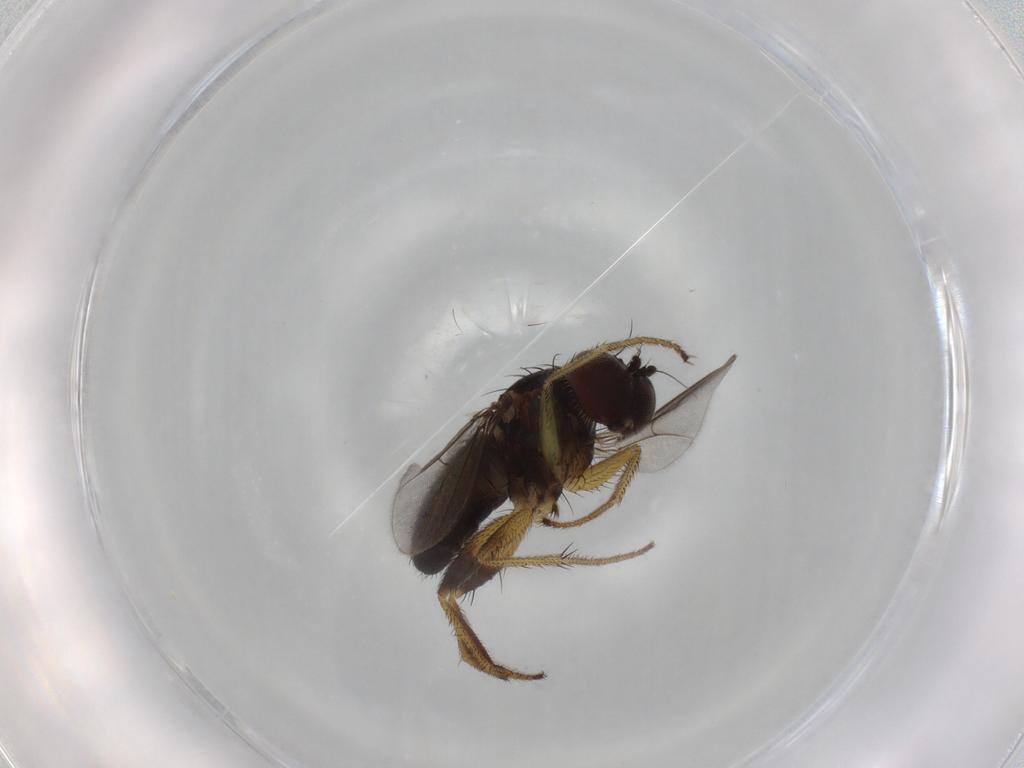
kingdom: Animalia
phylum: Arthropoda
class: Insecta
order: Diptera
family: Dolichopodidae
